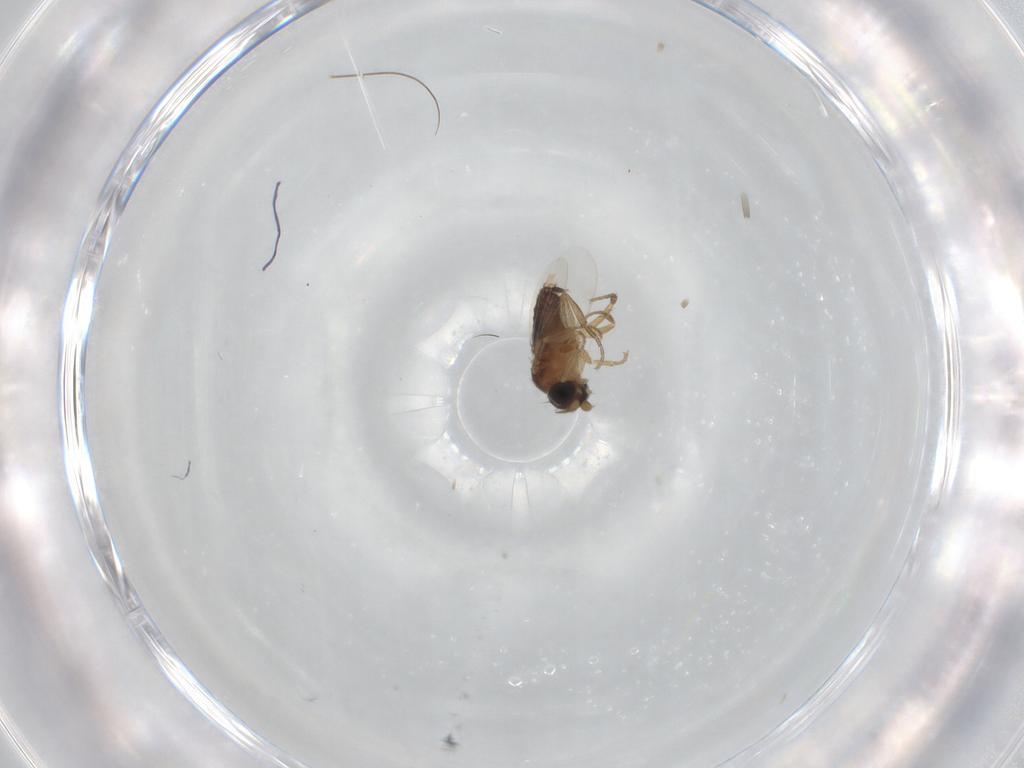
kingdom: Animalia
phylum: Arthropoda
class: Insecta
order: Diptera
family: Phoridae
